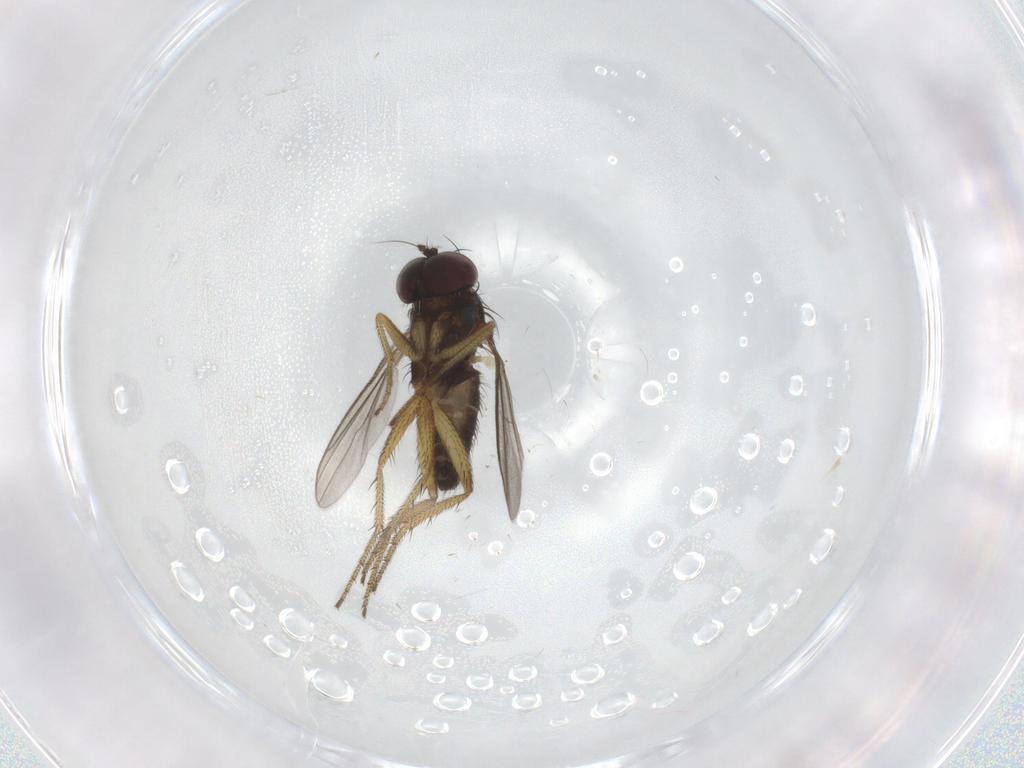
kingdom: Animalia
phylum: Arthropoda
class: Insecta
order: Diptera
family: Dolichopodidae
